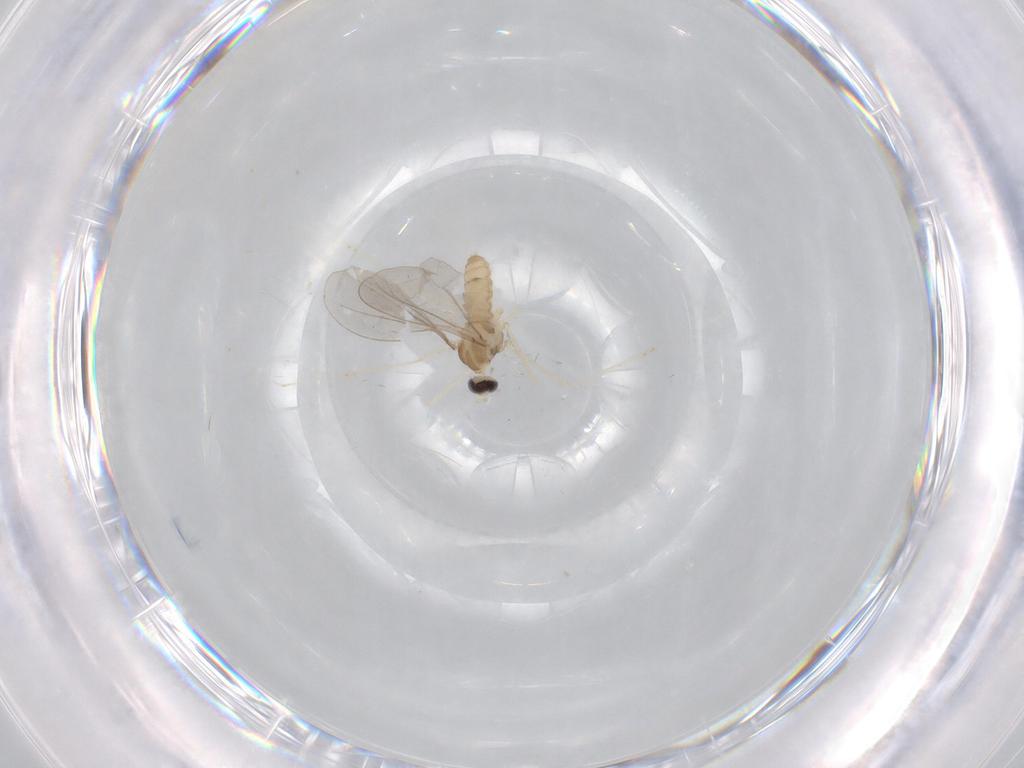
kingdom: Animalia
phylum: Arthropoda
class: Insecta
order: Diptera
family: Cecidomyiidae
